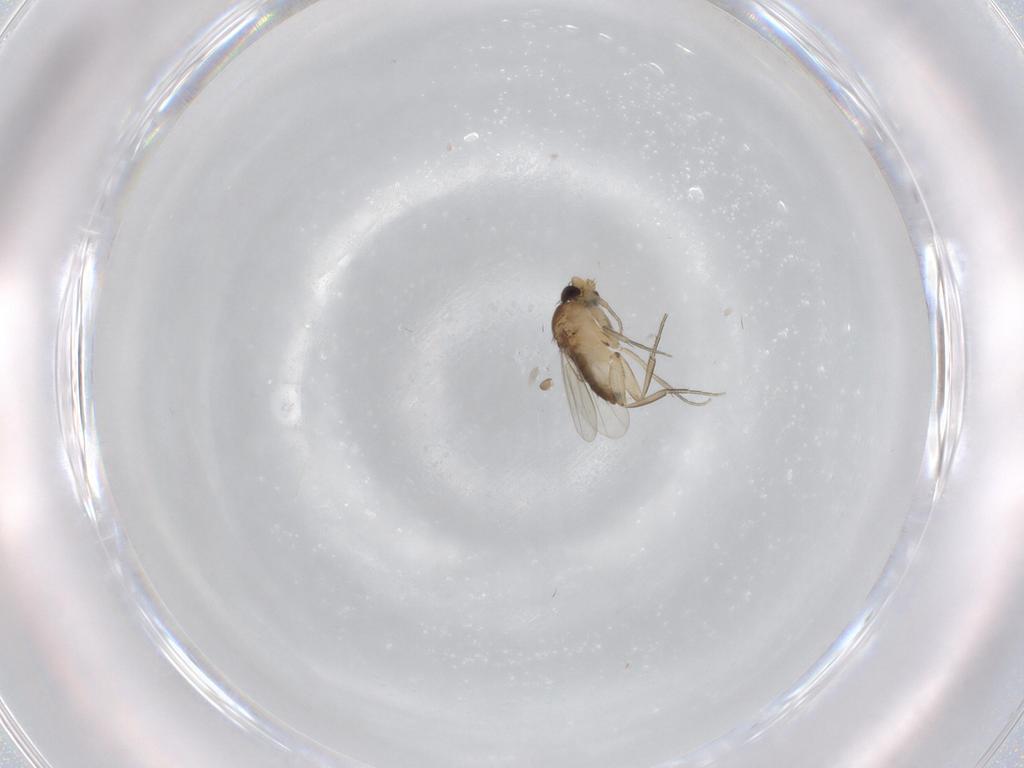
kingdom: Animalia
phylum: Arthropoda
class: Insecta
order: Diptera
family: Phoridae
